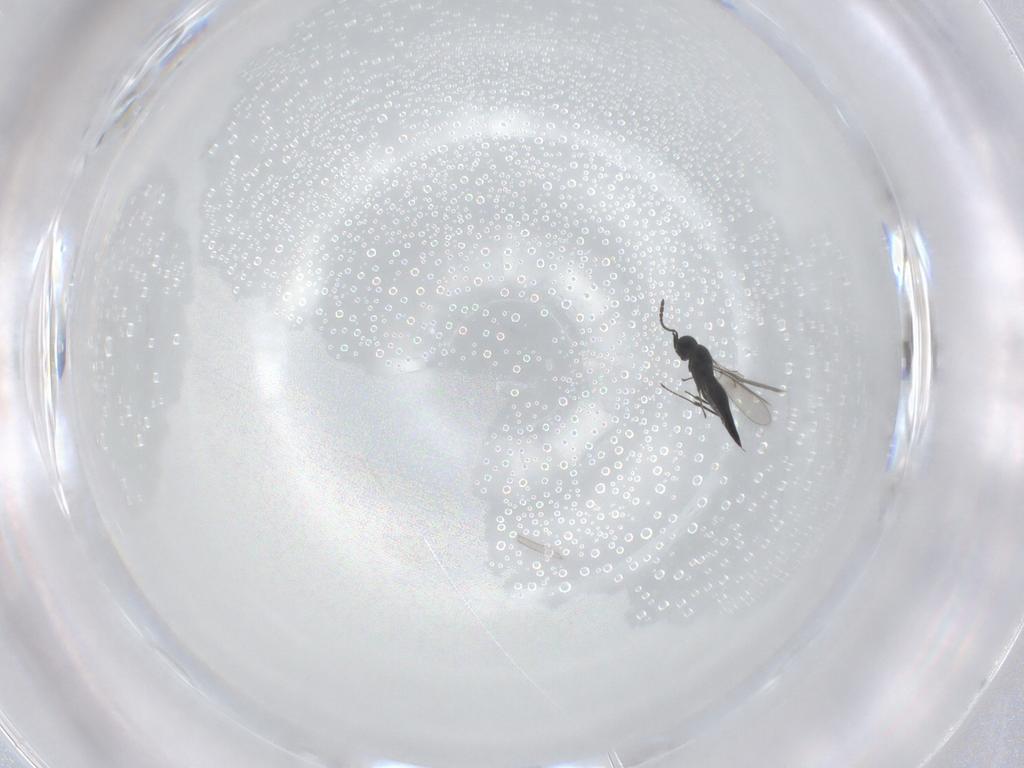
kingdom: Animalia
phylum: Arthropoda
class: Insecta
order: Hymenoptera
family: Scelionidae
